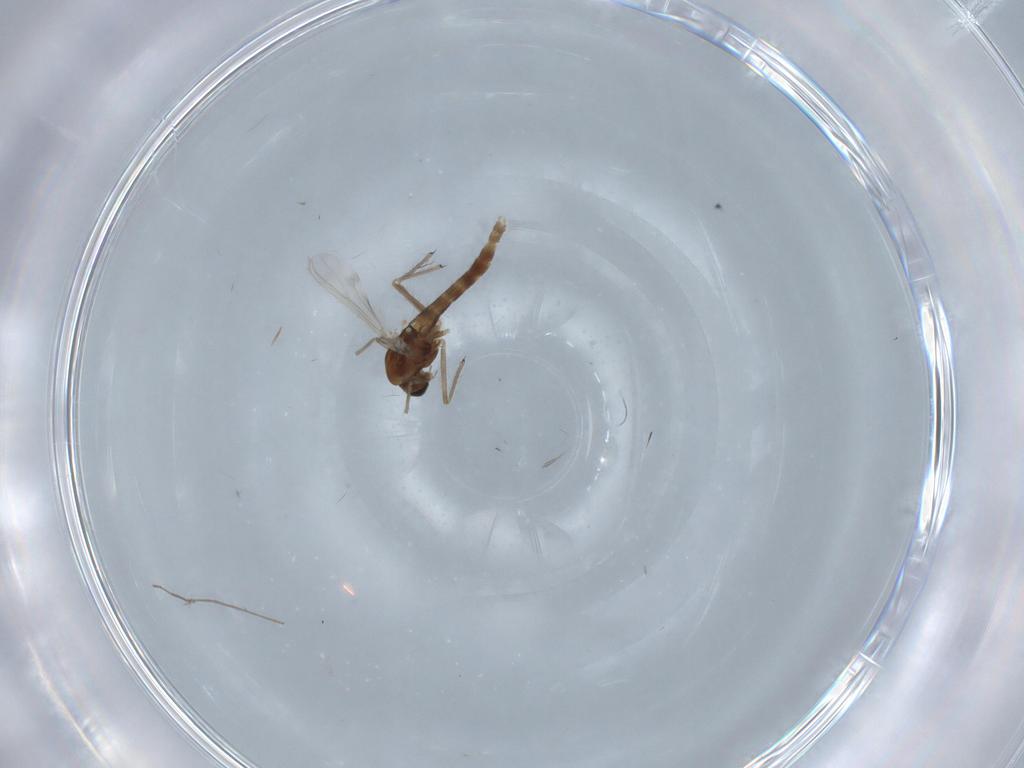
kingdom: Animalia
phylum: Arthropoda
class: Insecta
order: Diptera
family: Chironomidae
